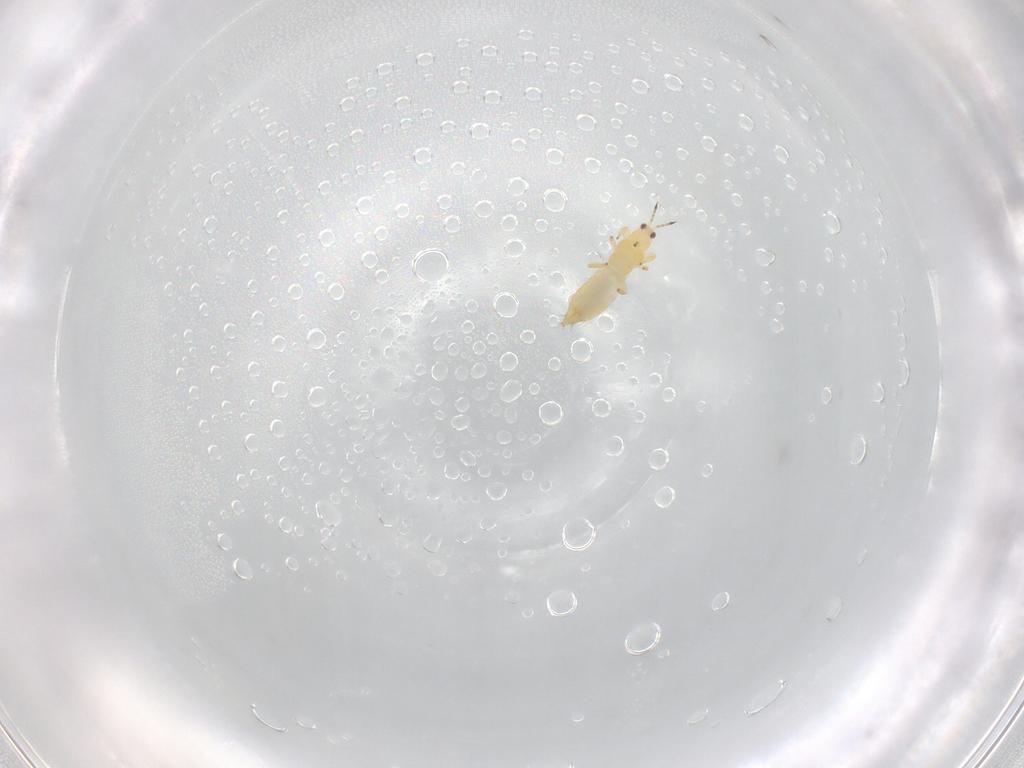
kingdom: Animalia
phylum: Arthropoda
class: Insecta
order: Thysanoptera
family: Thripidae
